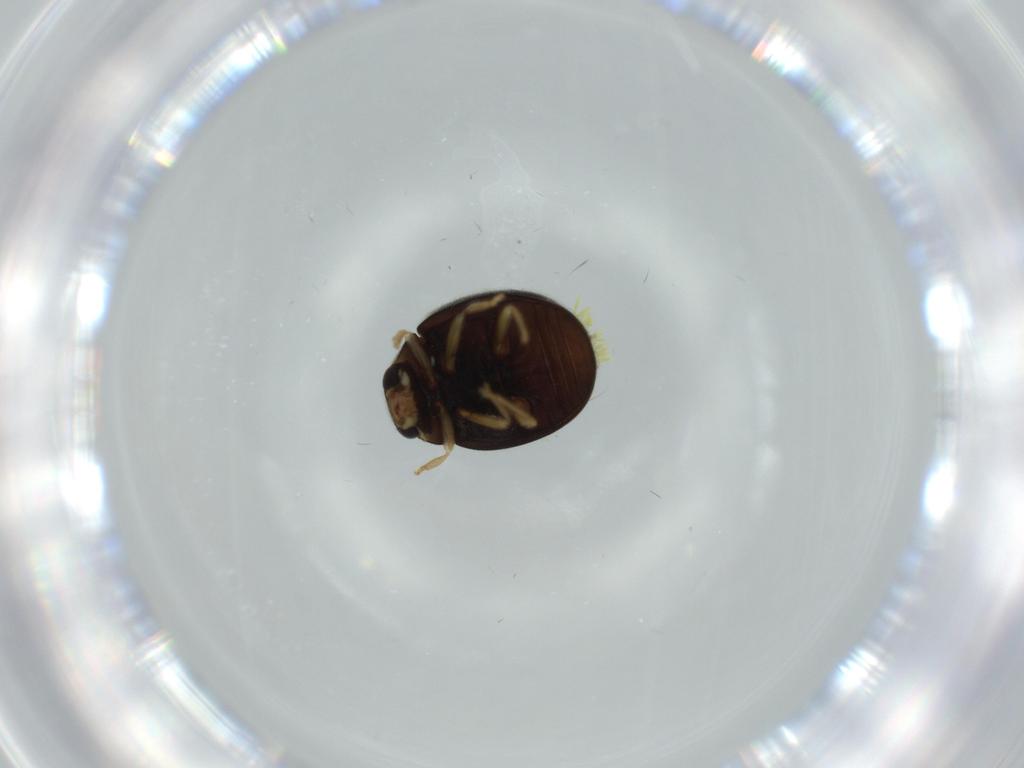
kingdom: Animalia
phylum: Arthropoda
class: Insecta
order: Coleoptera
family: Coccinellidae
